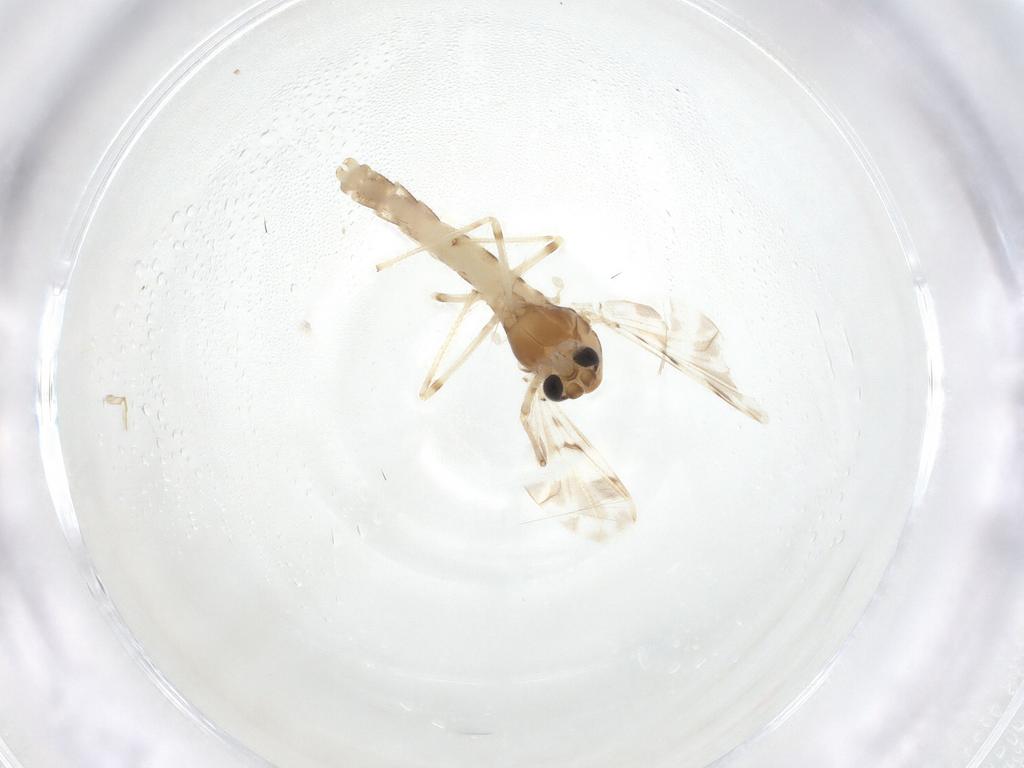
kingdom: Animalia
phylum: Arthropoda
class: Insecta
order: Diptera
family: Chironomidae
